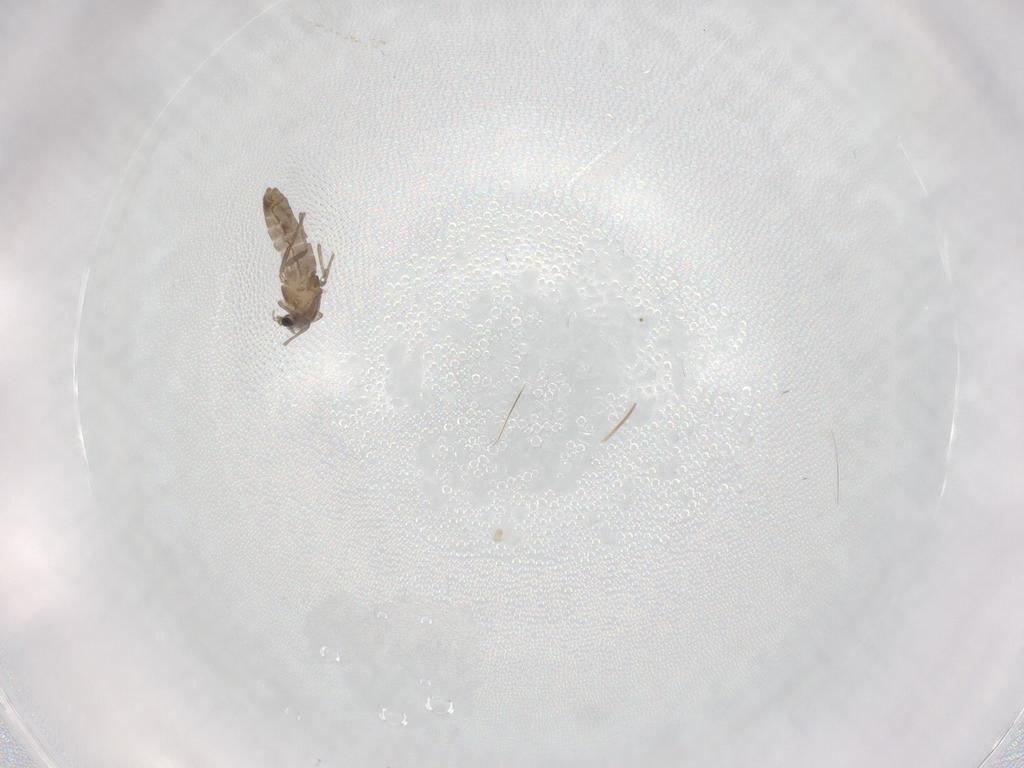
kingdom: Animalia
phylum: Arthropoda
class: Insecta
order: Diptera
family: Chironomidae
